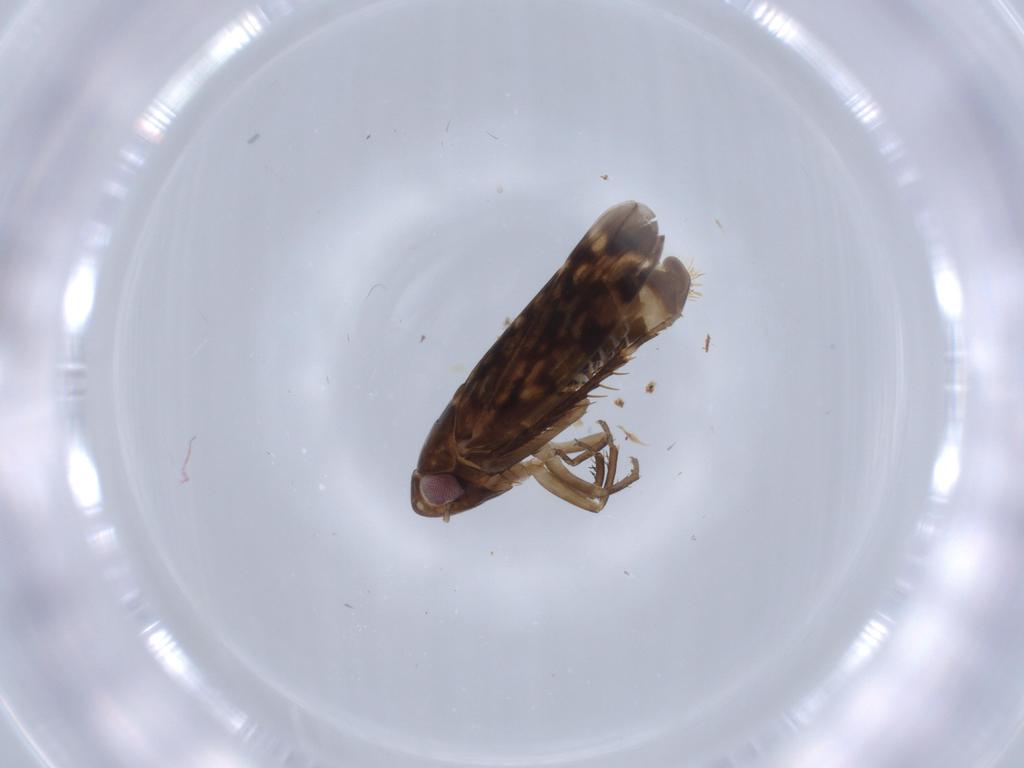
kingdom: Animalia
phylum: Arthropoda
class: Insecta
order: Hemiptera
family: Cicadellidae
